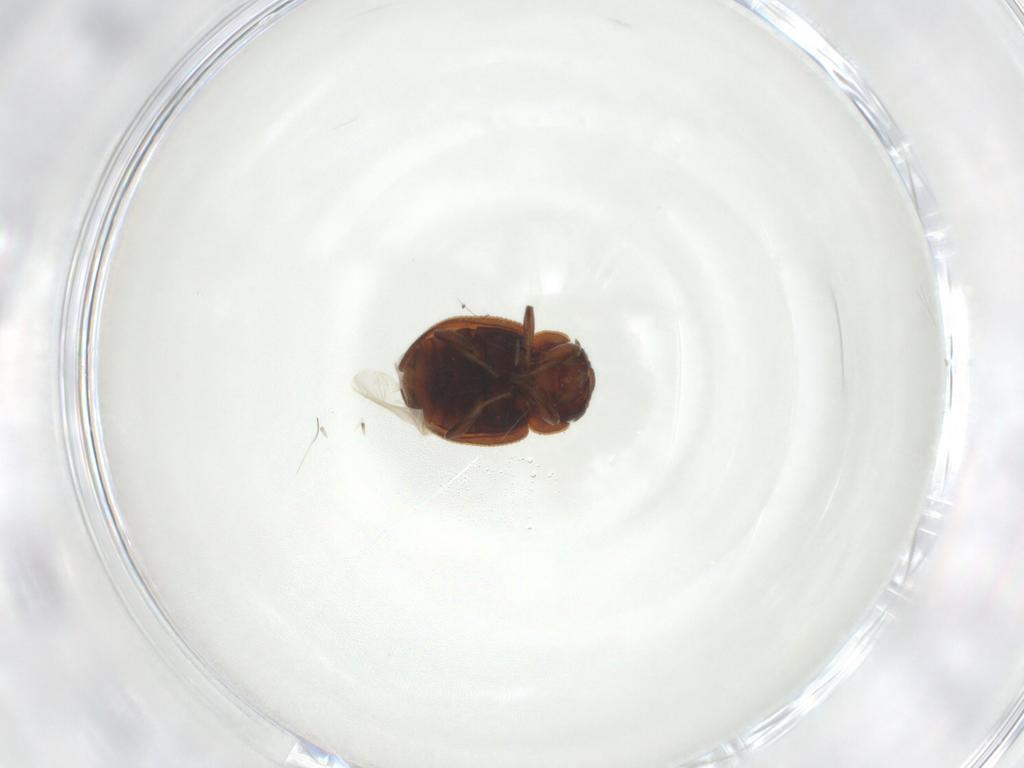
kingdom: Animalia
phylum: Arthropoda
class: Insecta
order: Coleoptera
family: Coccinellidae
